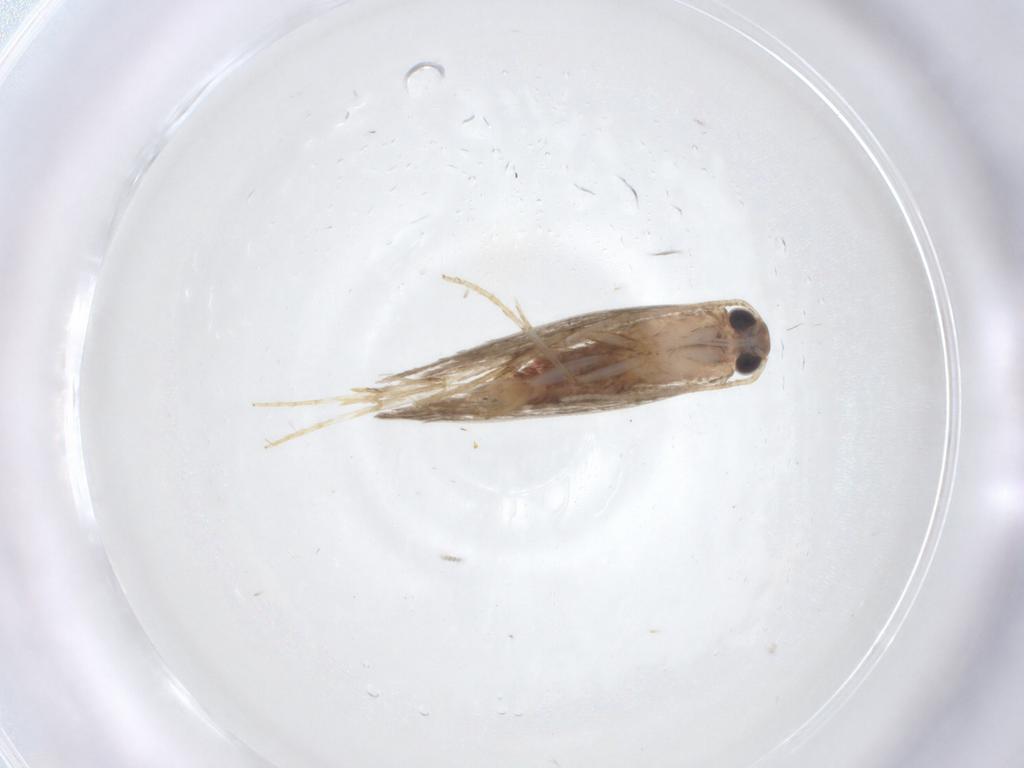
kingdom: Animalia
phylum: Arthropoda
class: Insecta
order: Lepidoptera
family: Gelechiidae
